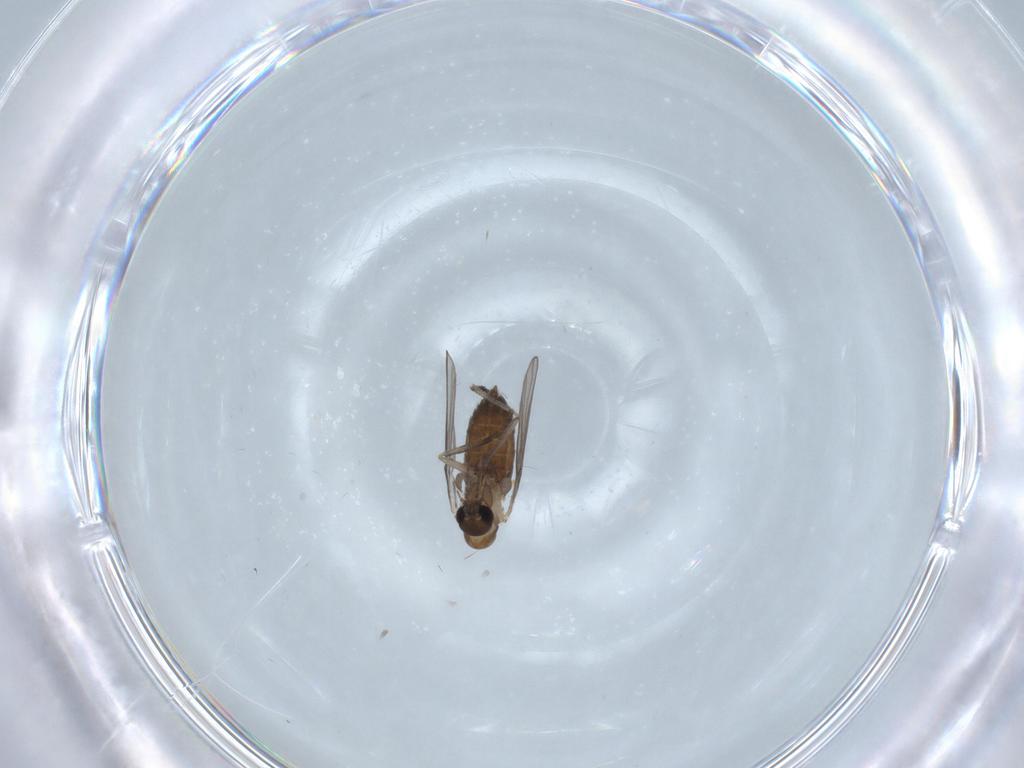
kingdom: Animalia
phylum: Arthropoda
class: Insecta
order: Diptera
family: Psychodidae
